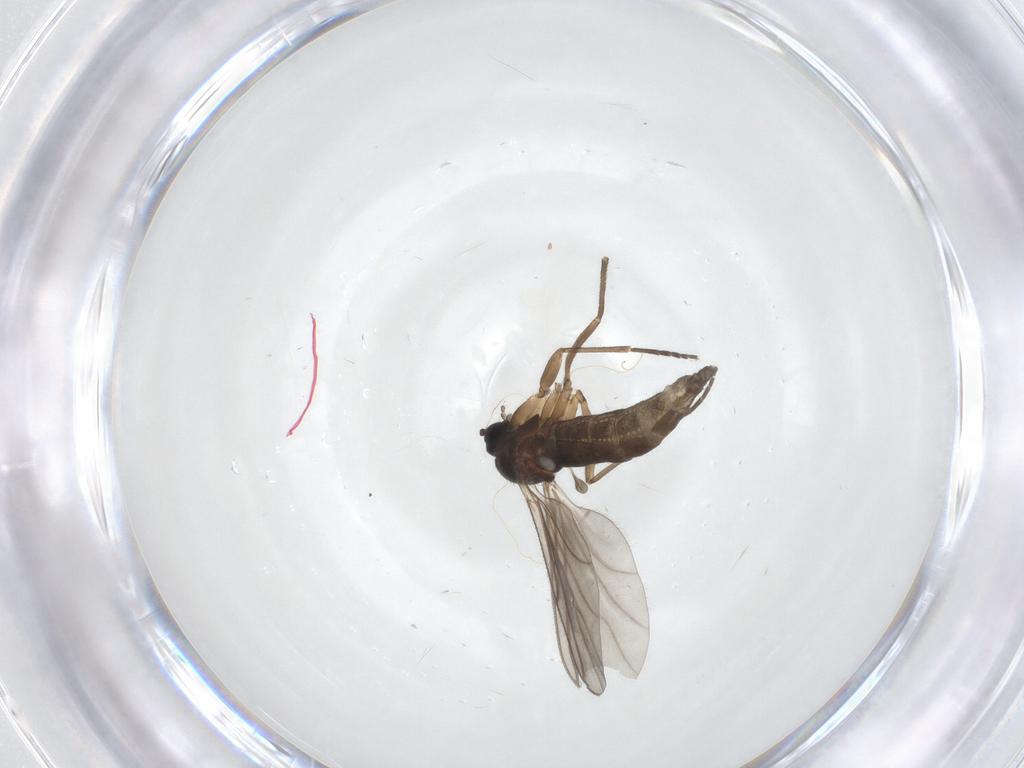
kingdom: Animalia
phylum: Arthropoda
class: Insecta
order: Diptera
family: Sciaridae
